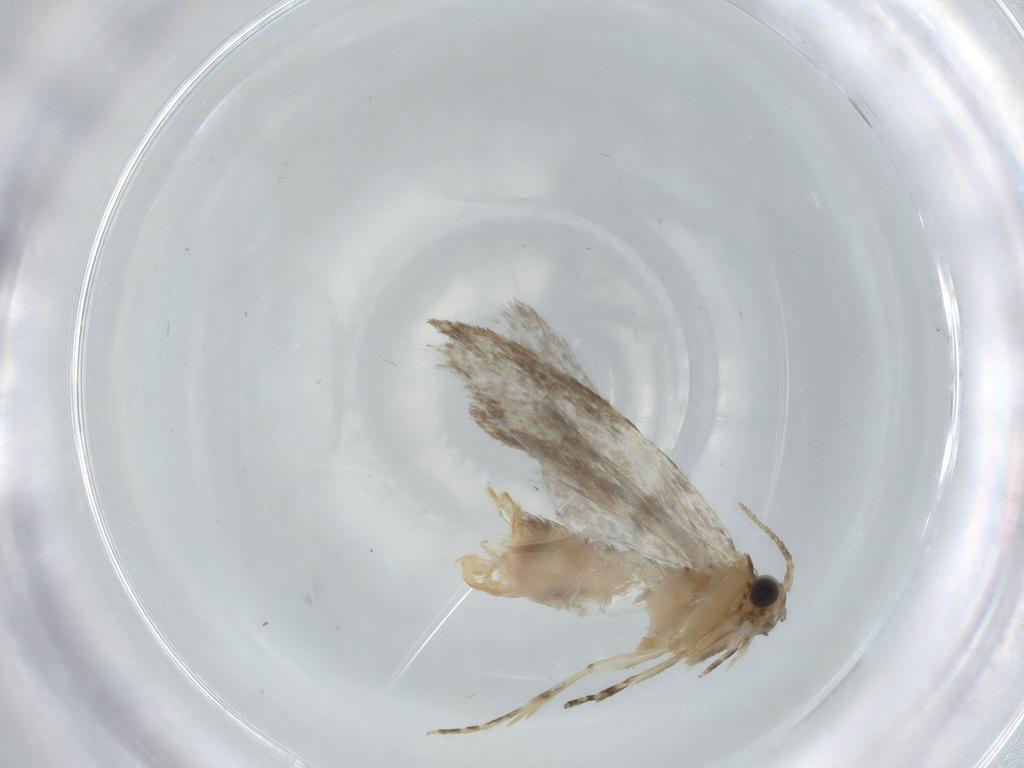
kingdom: Animalia
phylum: Arthropoda
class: Insecta
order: Lepidoptera
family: Tineidae
